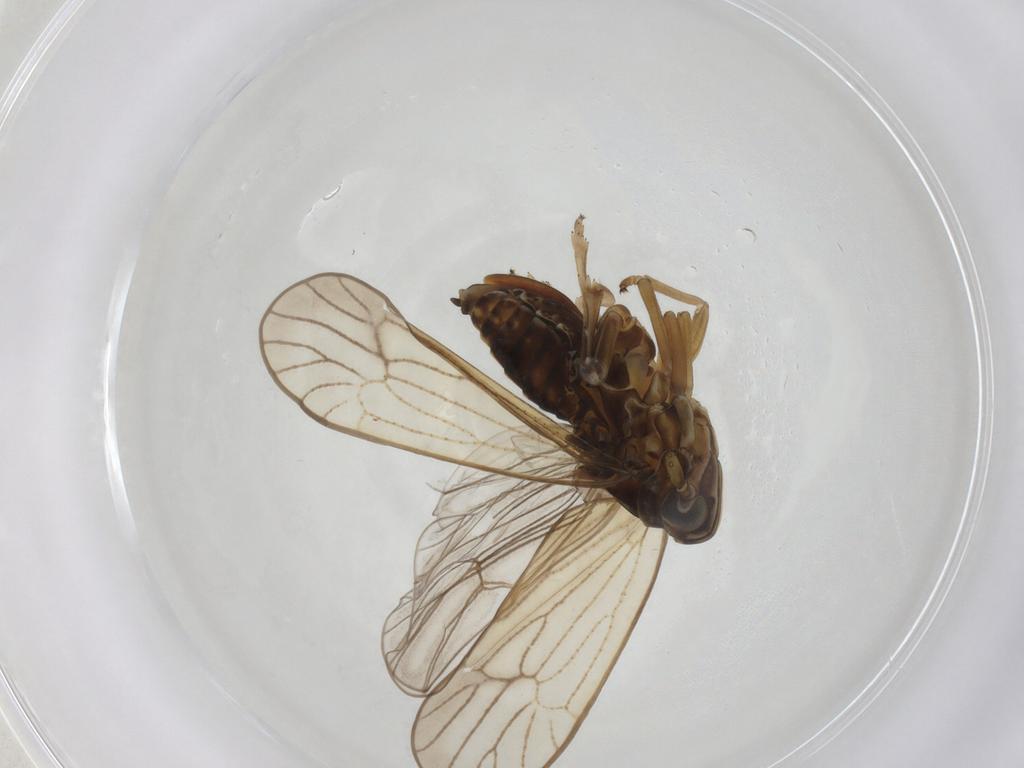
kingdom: Animalia
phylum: Arthropoda
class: Insecta
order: Hemiptera
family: Delphacidae
